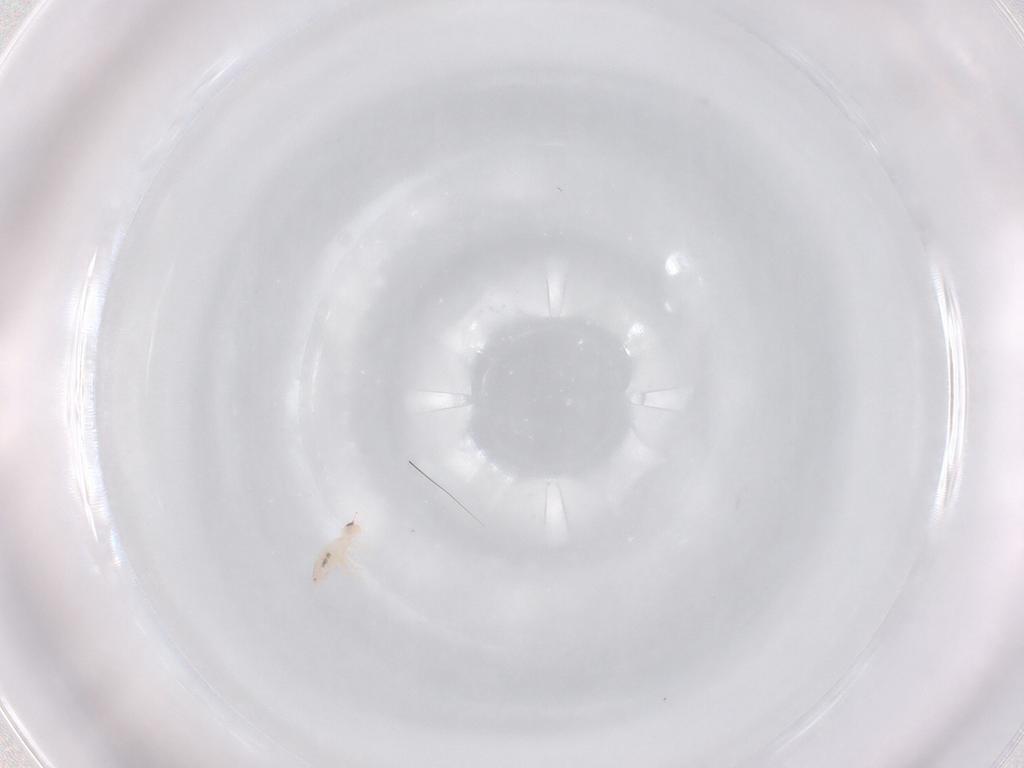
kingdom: Animalia
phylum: Arthropoda
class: Collembola
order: Entomobryomorpha
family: Entomobryidae
